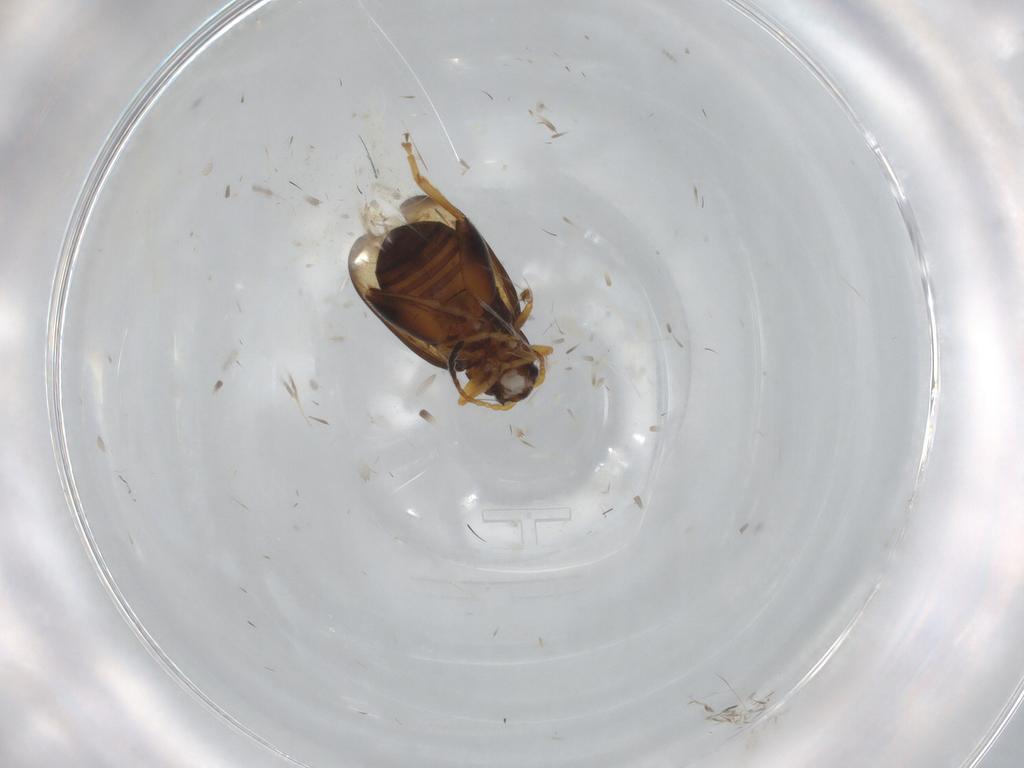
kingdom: Animalia
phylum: Arthropoda
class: Insecta
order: Coleoptera
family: Chrysomelidae
